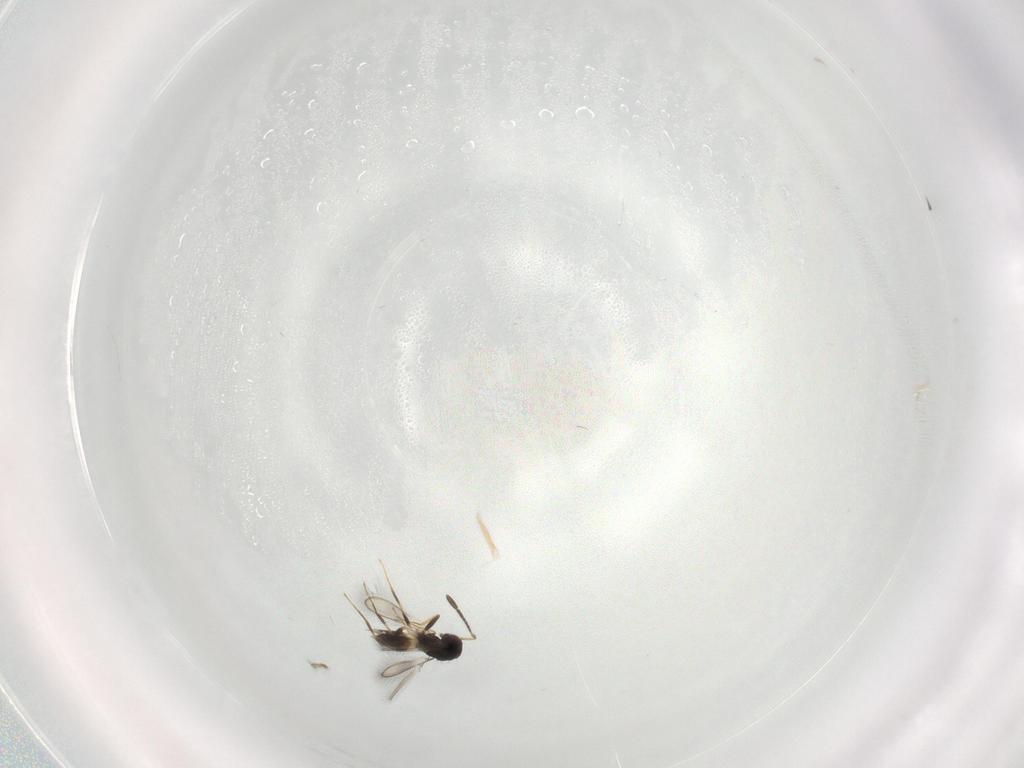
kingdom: Animalia
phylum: Arthropoda
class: Insecta
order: Hymenoptera
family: Mymaridae
